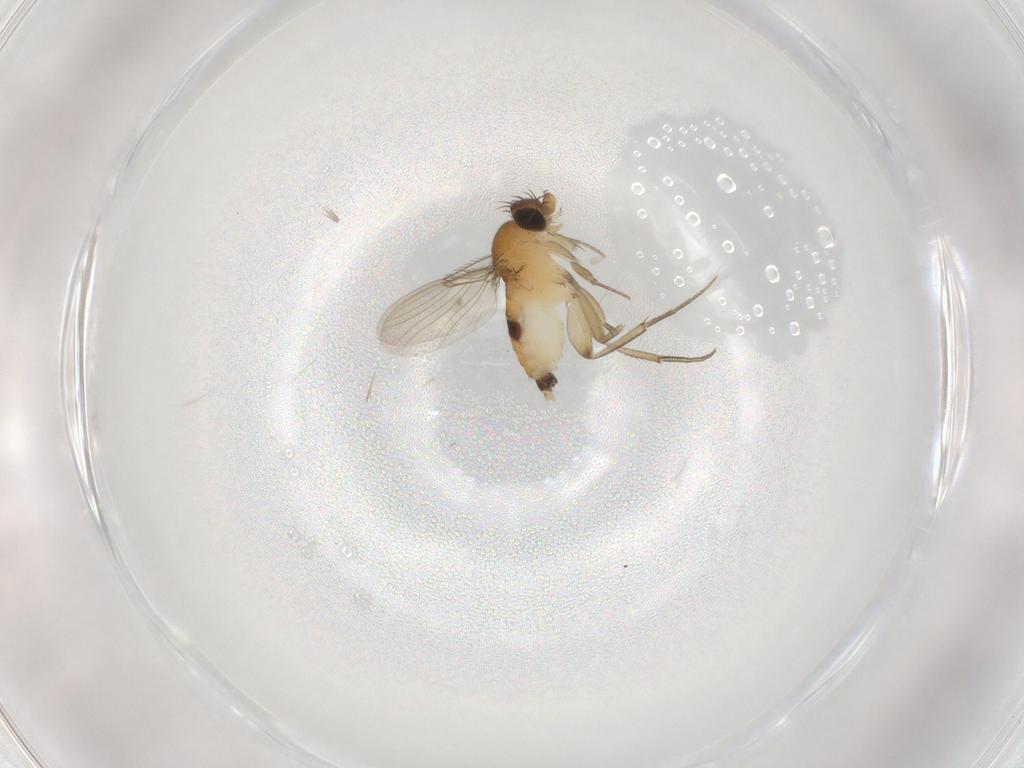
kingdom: Animalia
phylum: Arthropoda
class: Insecta
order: Diptera
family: Phoridae
